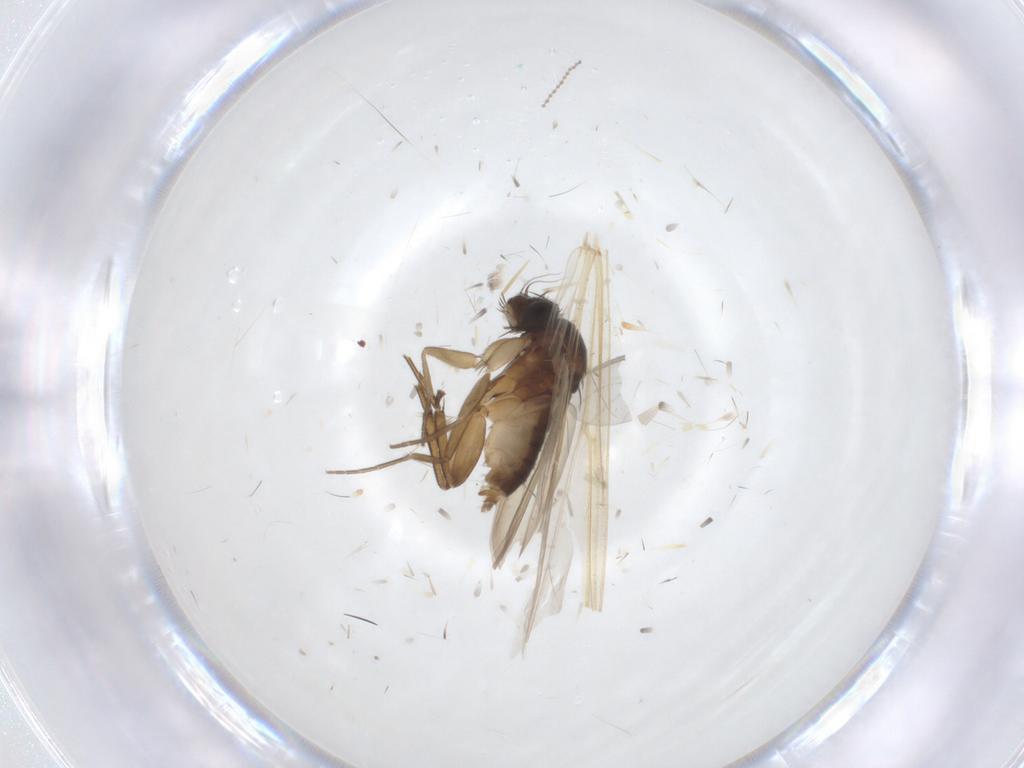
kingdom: Animalia
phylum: Arthropoda
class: Insecta
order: Diptera
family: Phoridae
